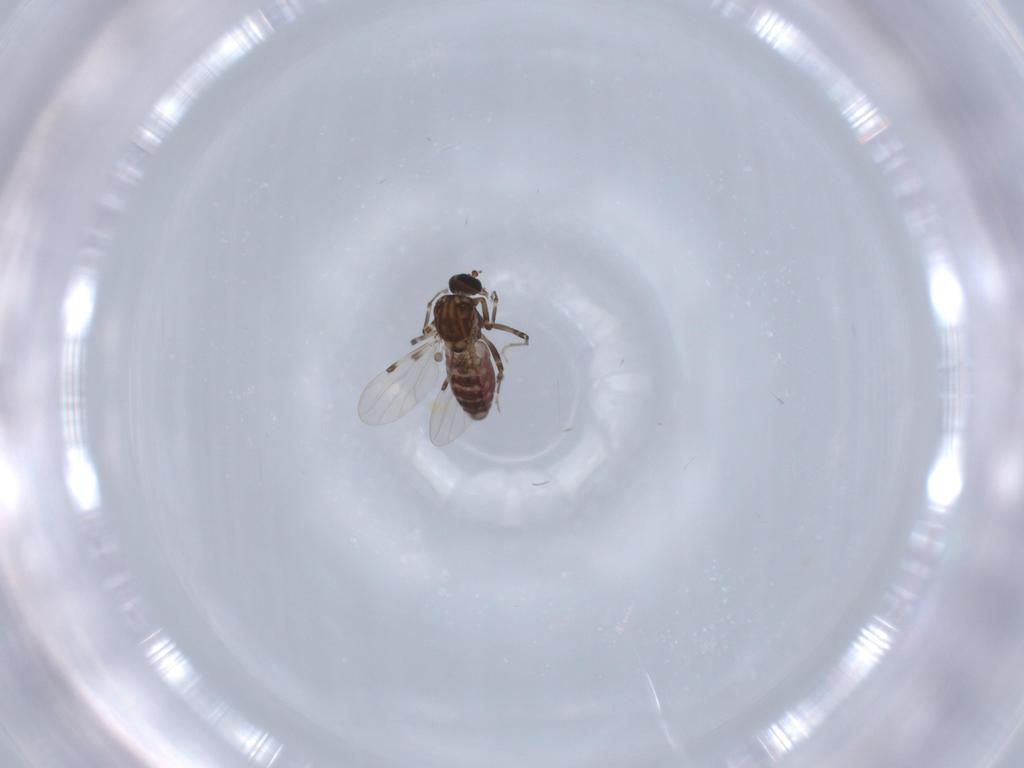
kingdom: Animalia
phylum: Arthropoda
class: Insecta
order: Diptera
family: Ceratopogonidae
